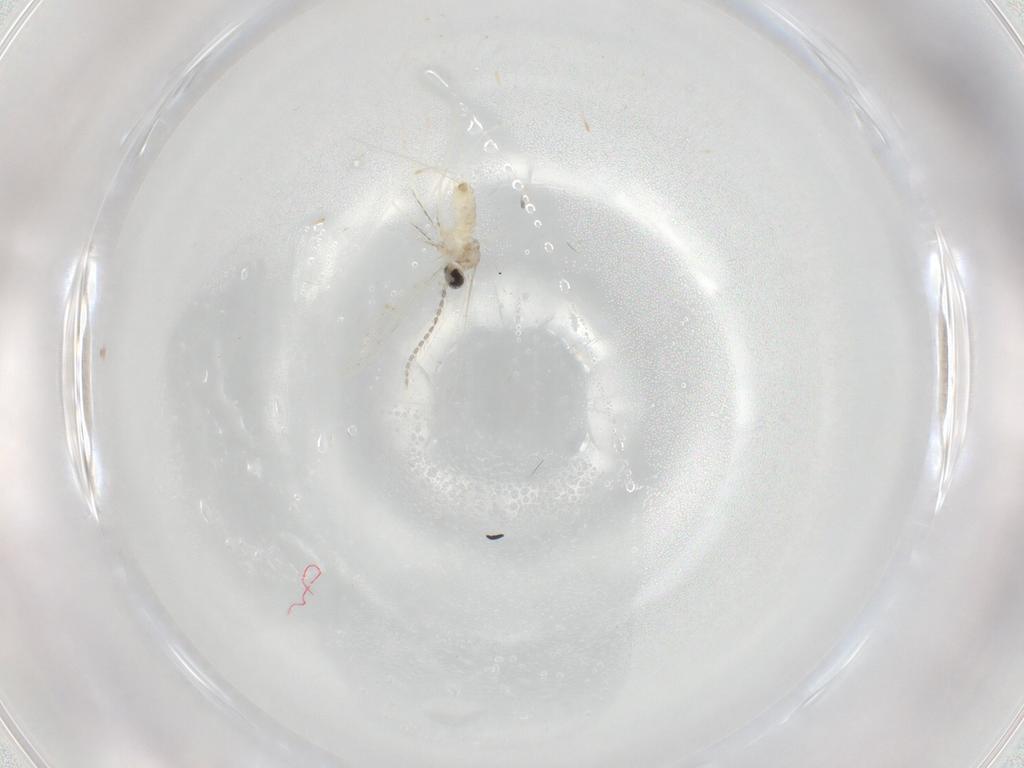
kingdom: Animalia
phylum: Arthropoda
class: Insecta
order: Diptera
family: Cecidomyiidae
